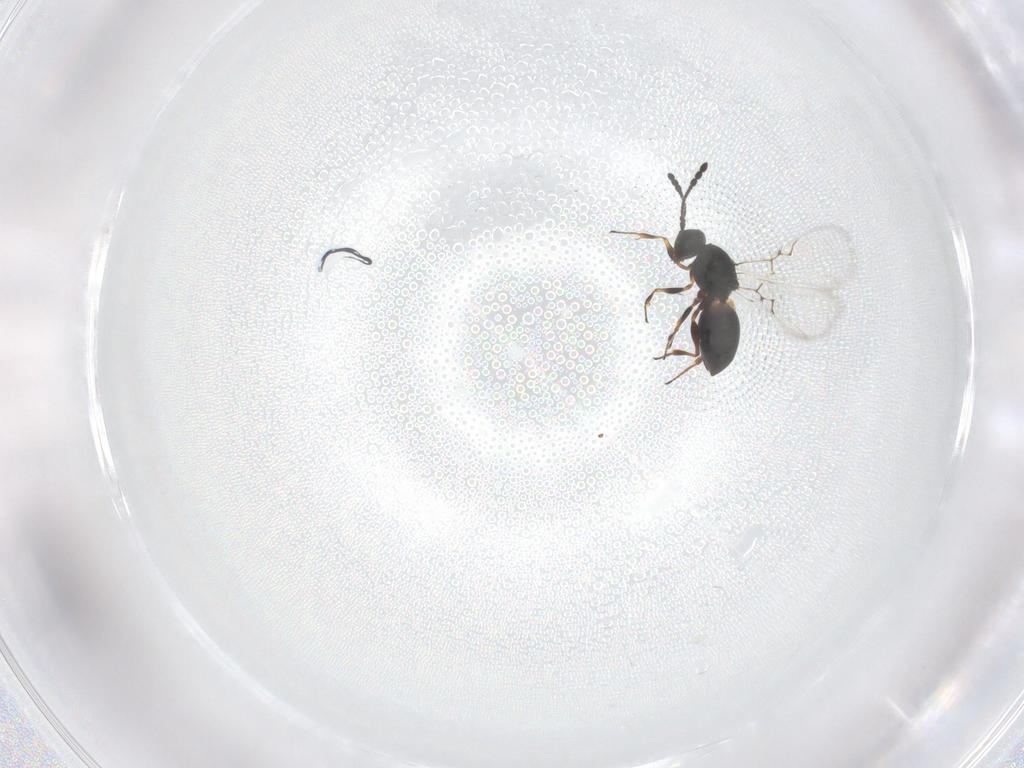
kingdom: Animalia
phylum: Arthropoda
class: Insecta
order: Hymenoptera
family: Figitidae
